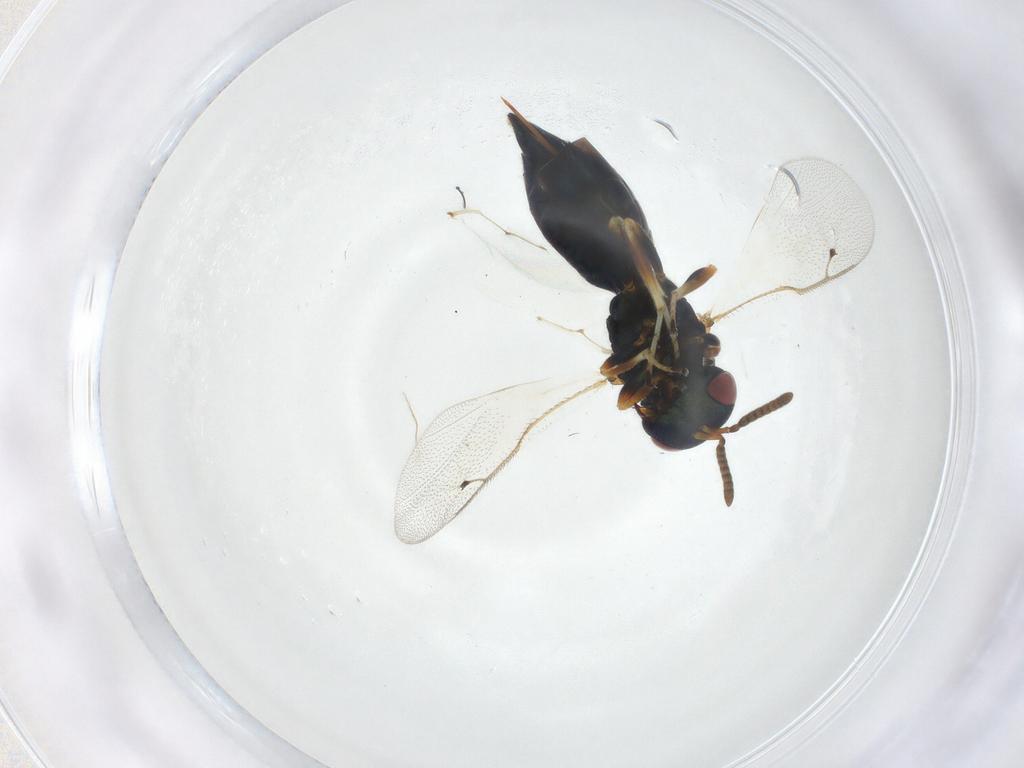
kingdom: Animalia
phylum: Arthropoda
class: Insecta
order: Hymenoptera
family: Pteromalidae
